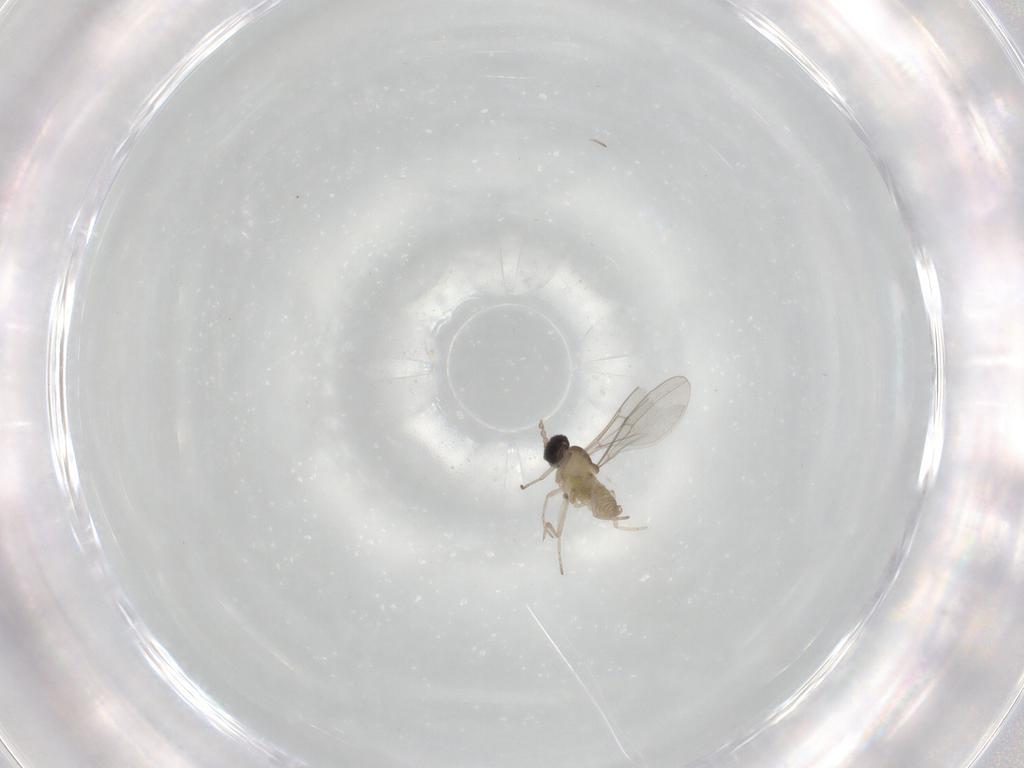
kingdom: Animalia
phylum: Arthropoda
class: Insecta
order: Diptera
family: Cecidomyiidae
